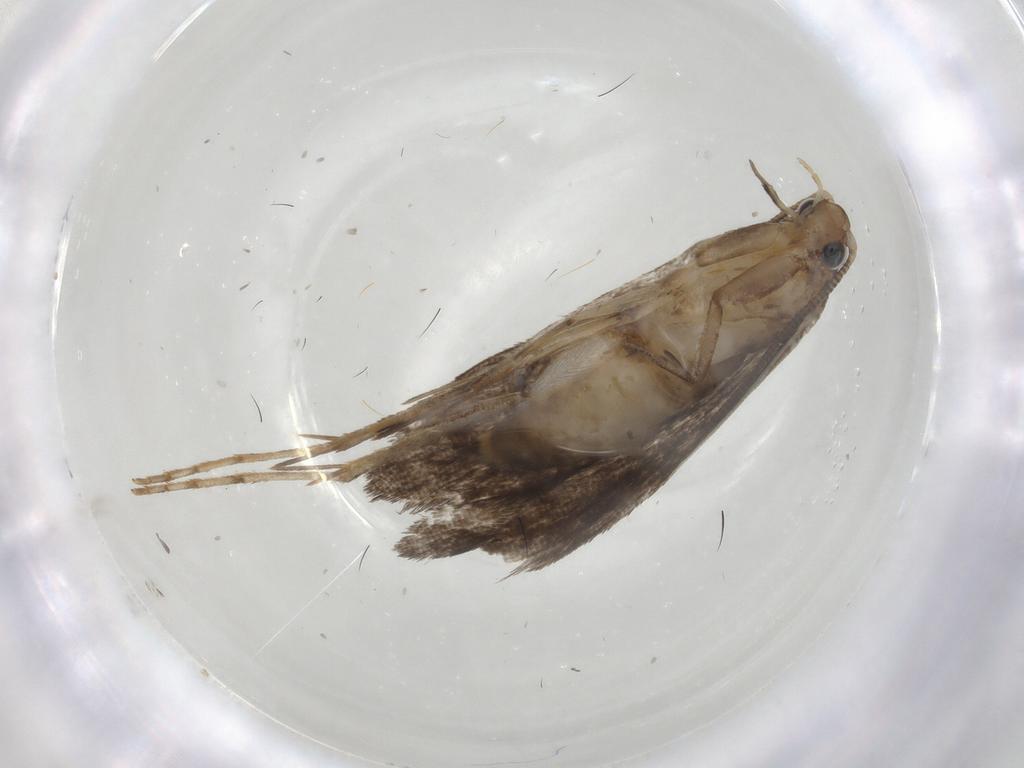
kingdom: Animalia
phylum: Arthropoda
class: Insecta
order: Lepidoptera
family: Tineidae
